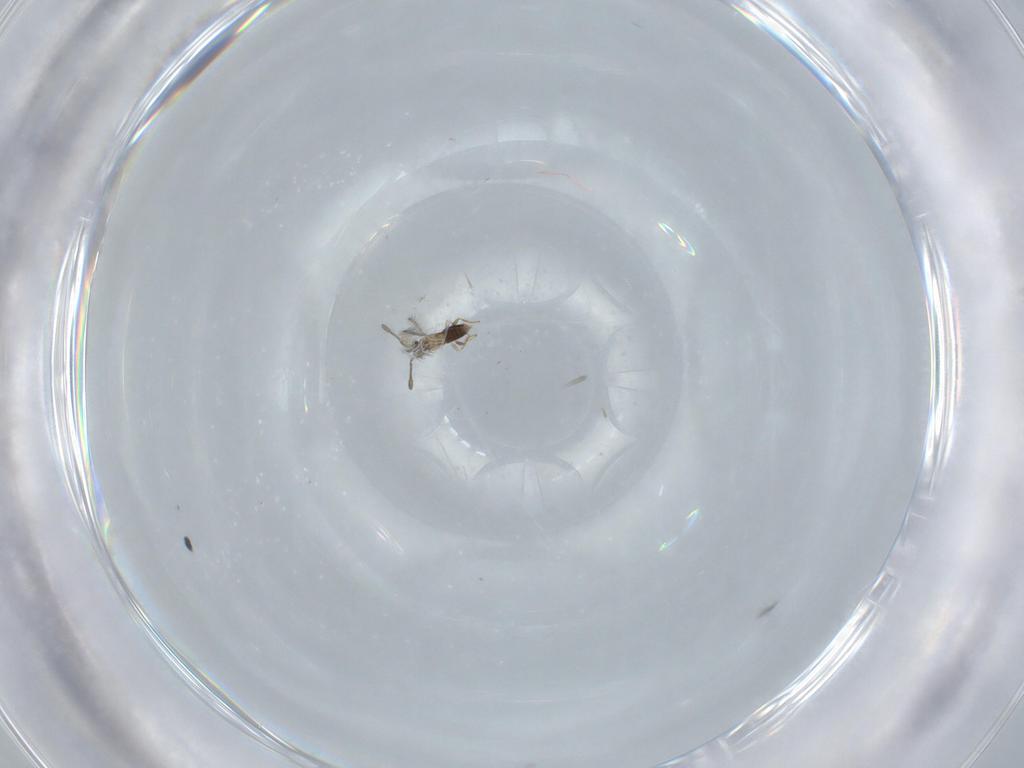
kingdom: Animalia
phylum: Arthropoda
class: Insecta
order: Hymenoptera
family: Mymaridae
